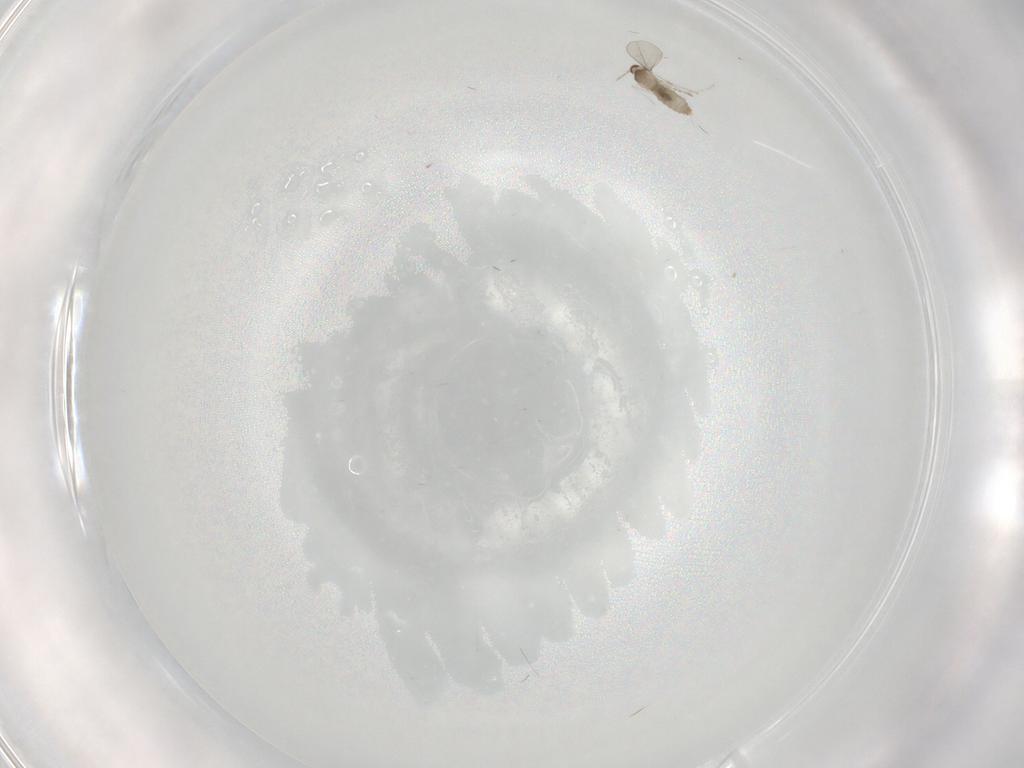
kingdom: Animalia
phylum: Arthropoda
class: Insecta
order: Diptera
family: Cecidomyiidae
